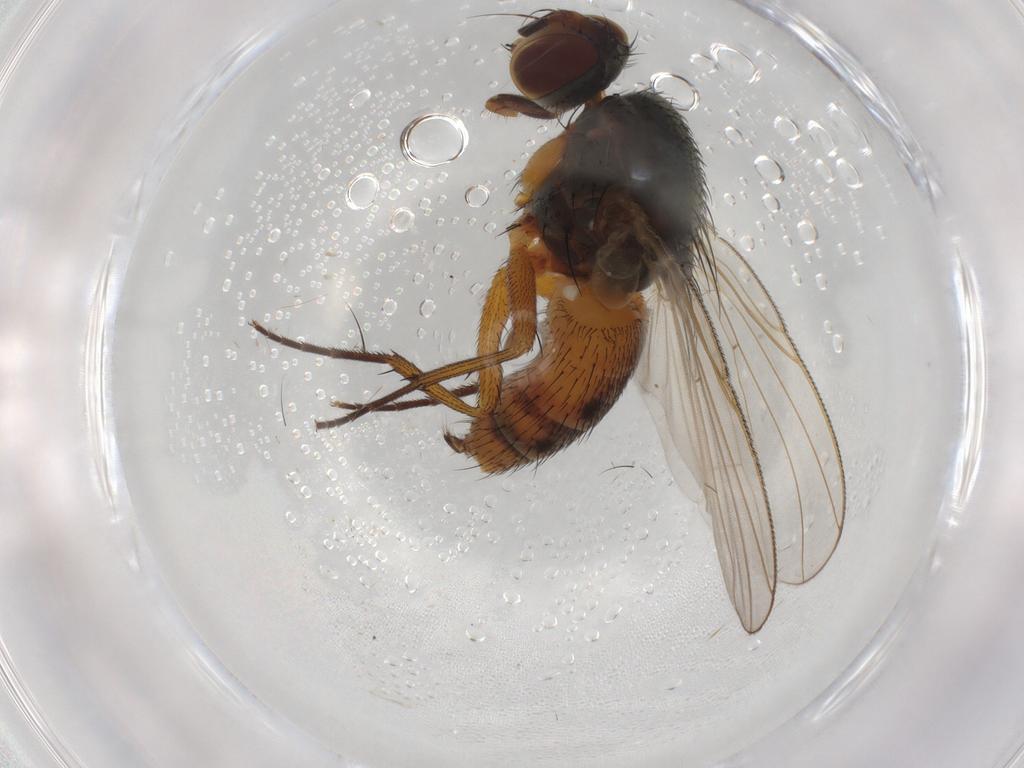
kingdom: Animalia
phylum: Arthropoda
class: Insecta
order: Diptera
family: Muscidae
